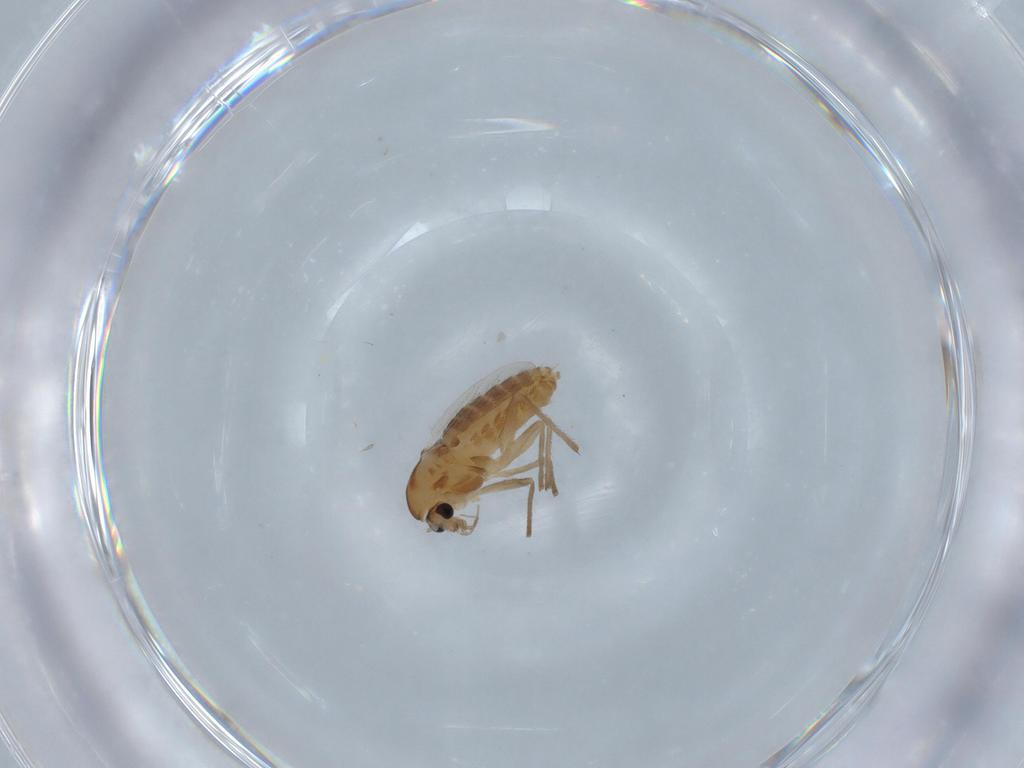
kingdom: Animalia
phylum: Arthropoda
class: Insecta
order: Diptera
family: Chironomidae
